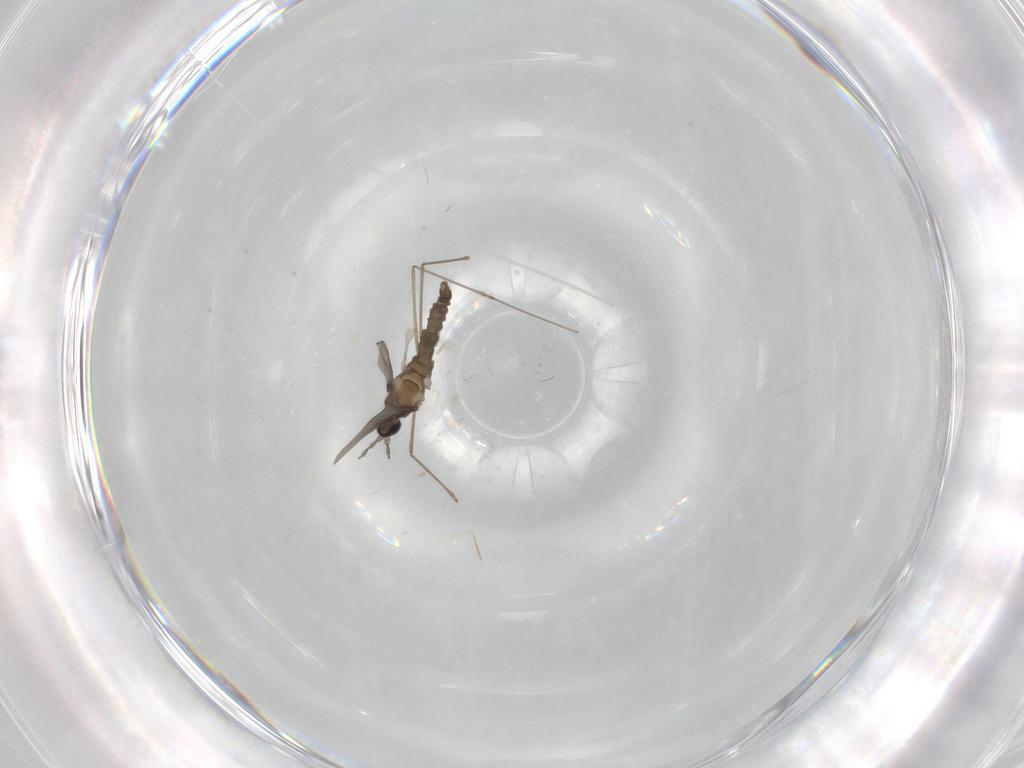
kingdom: Animalia
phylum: Arthropoda
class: Insecta
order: Diptera
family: Cecidomyiidae
